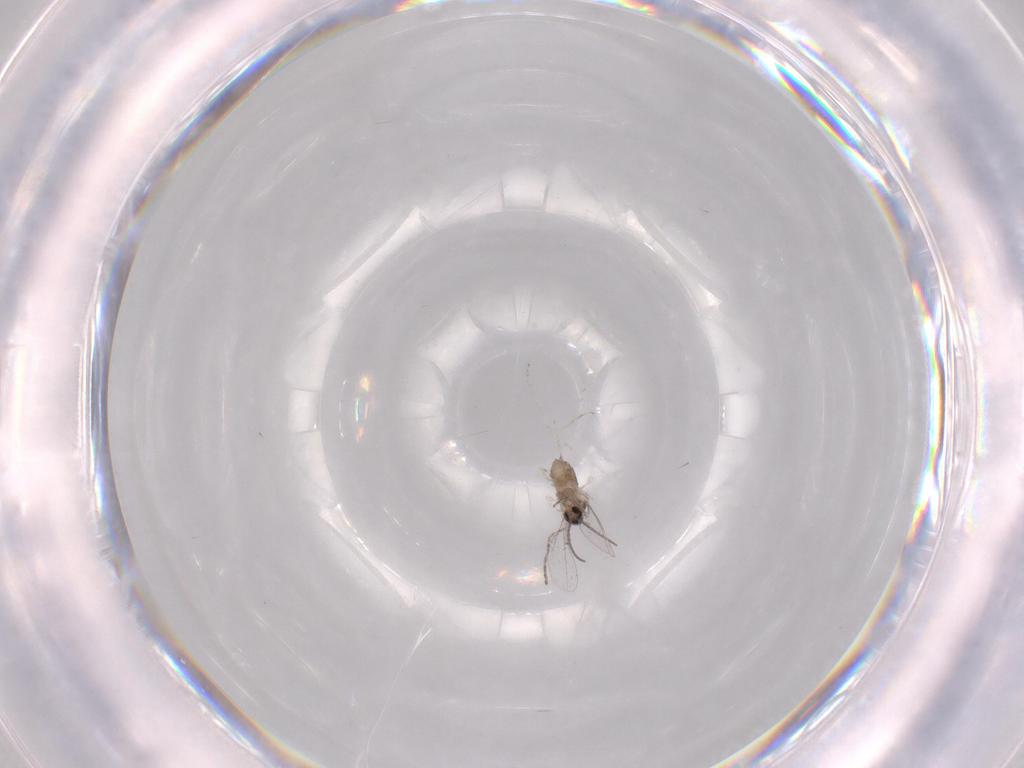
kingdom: Animalia
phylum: Arthropoda
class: Insecta
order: Diptera
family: Cecidomyiidae
